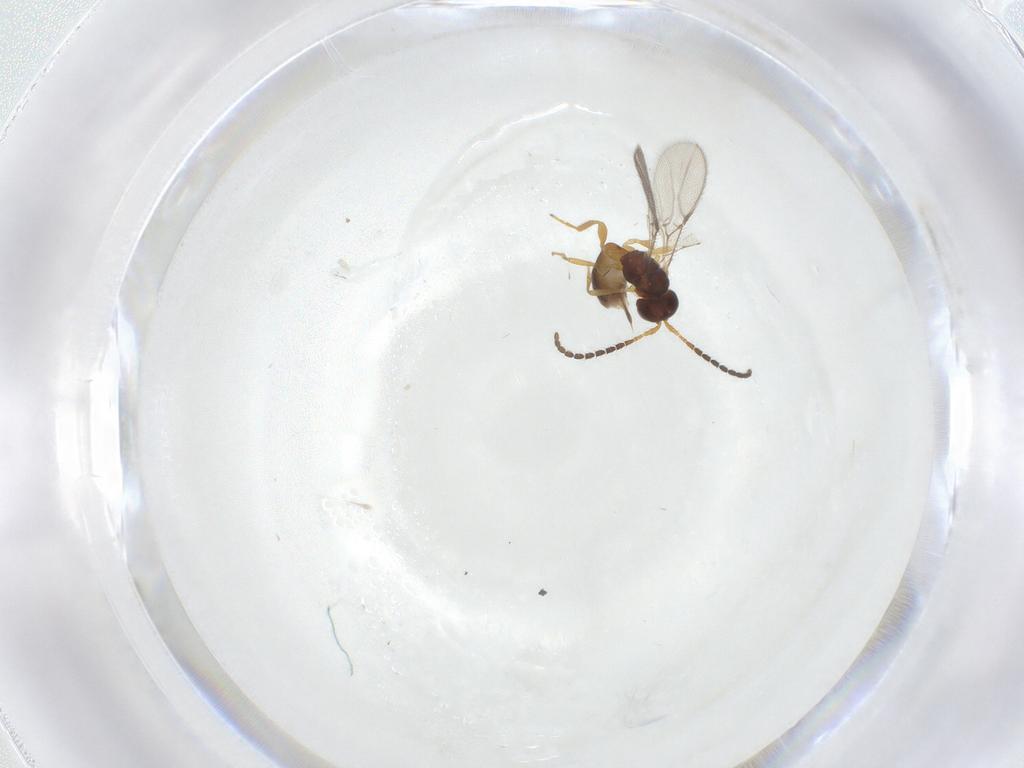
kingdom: Animalia
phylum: Arthropoda
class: Insecta
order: Hymenoptera
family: Braconidae
